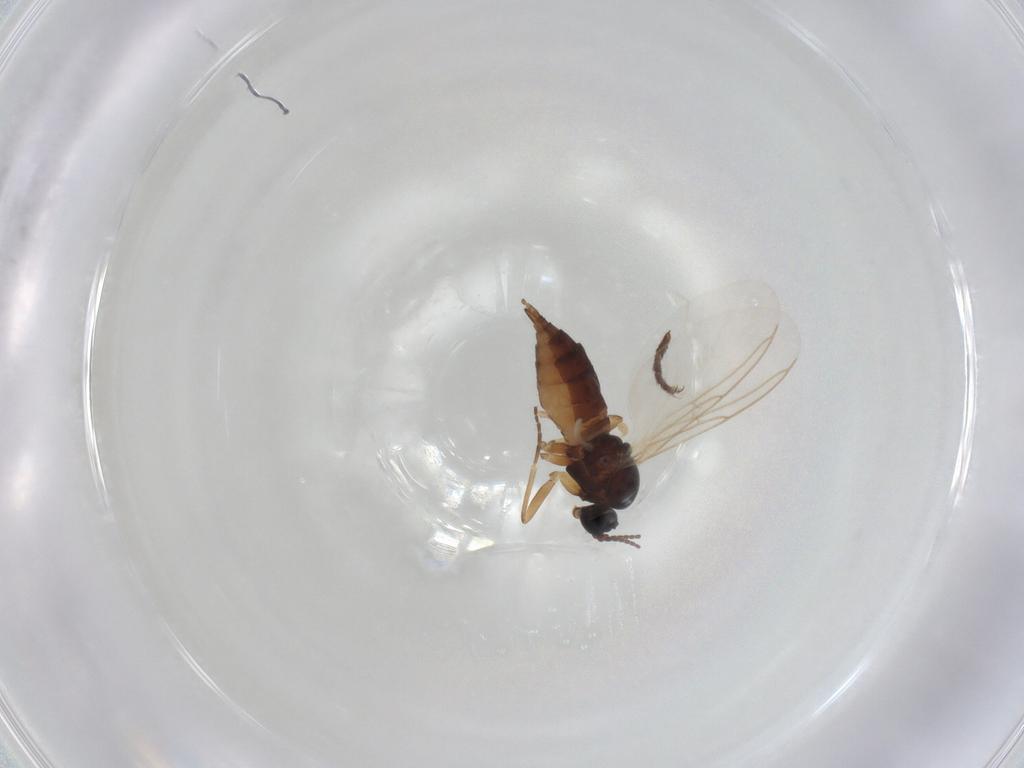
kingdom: Animalia
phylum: Arthropoda
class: Insecta
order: Diptera
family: Sciaridae
